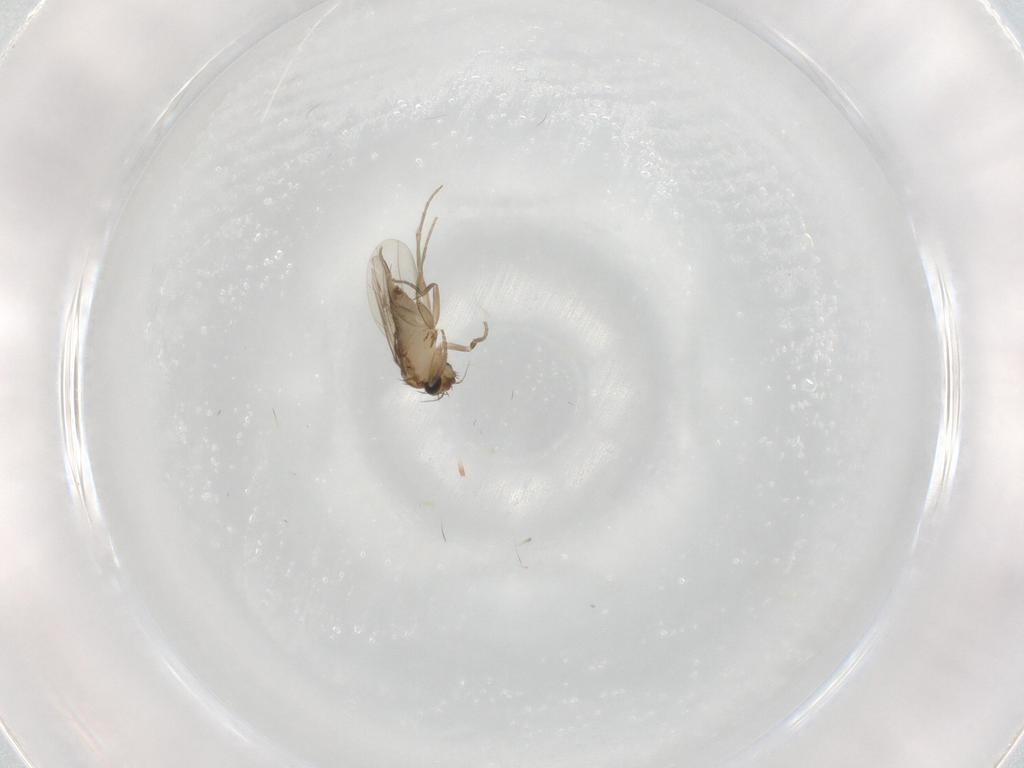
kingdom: Animalia
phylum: Arthropoda
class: Insecta
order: Diptera
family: Phoridae
